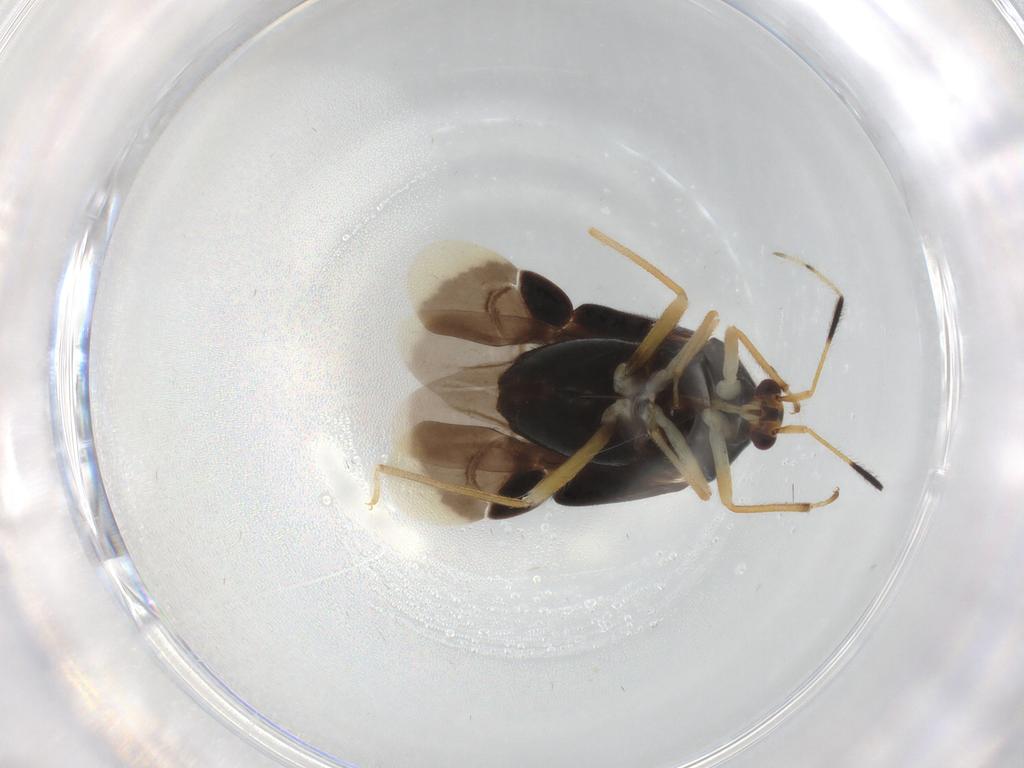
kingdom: Animalia
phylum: Arthropoda
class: Insecta
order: Hemiptera
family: Miridae
